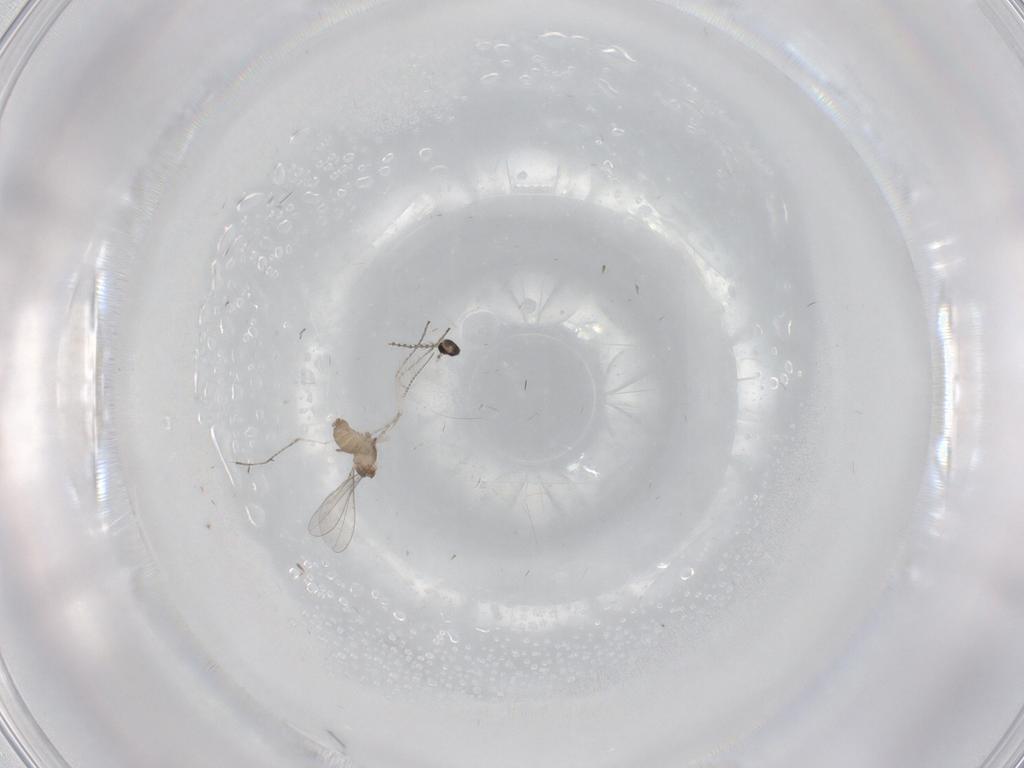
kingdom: Animalia
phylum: Arthropoda
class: Insecta
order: Diptera
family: Cecidomyiidae
